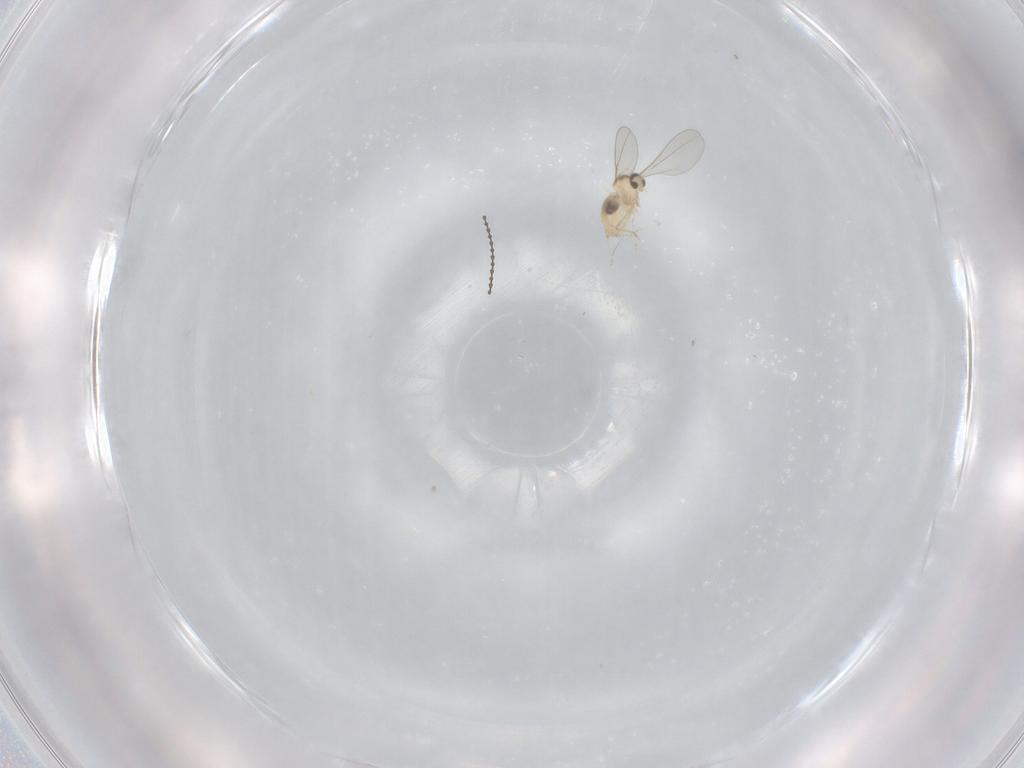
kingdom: Animalia
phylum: Arthropoda
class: Insecta
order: Diptera
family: Cecidomyiidae
